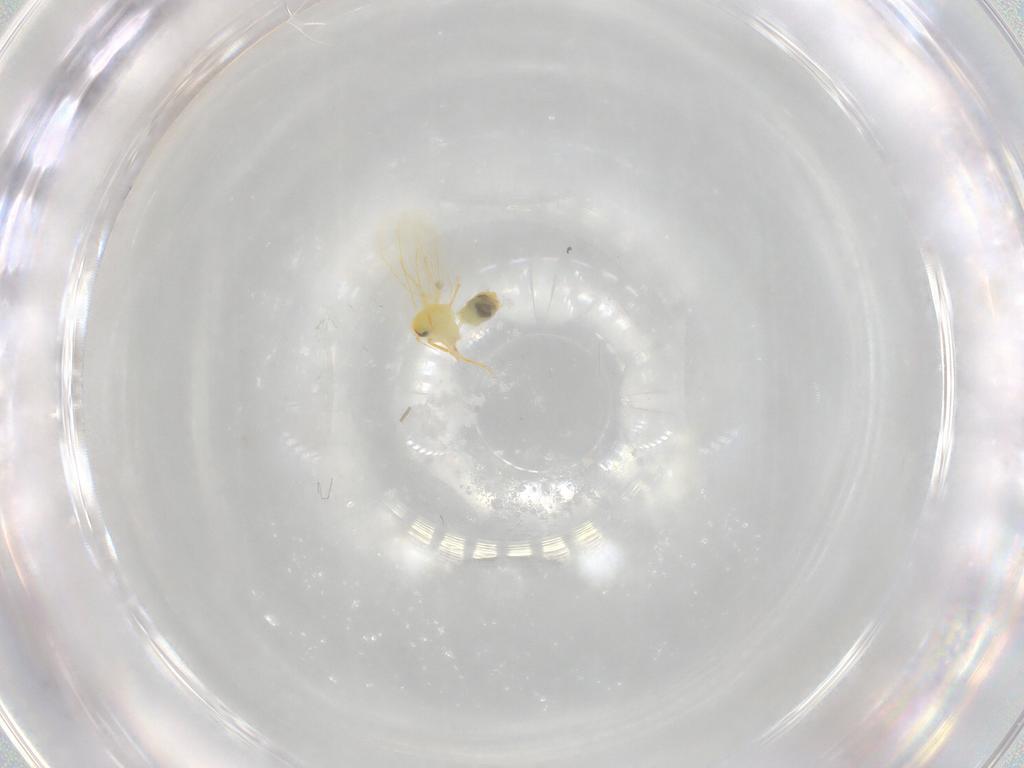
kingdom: Animalia
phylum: Arthropoda
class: Insecta
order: Hemiptera
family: Aleyrodidae
